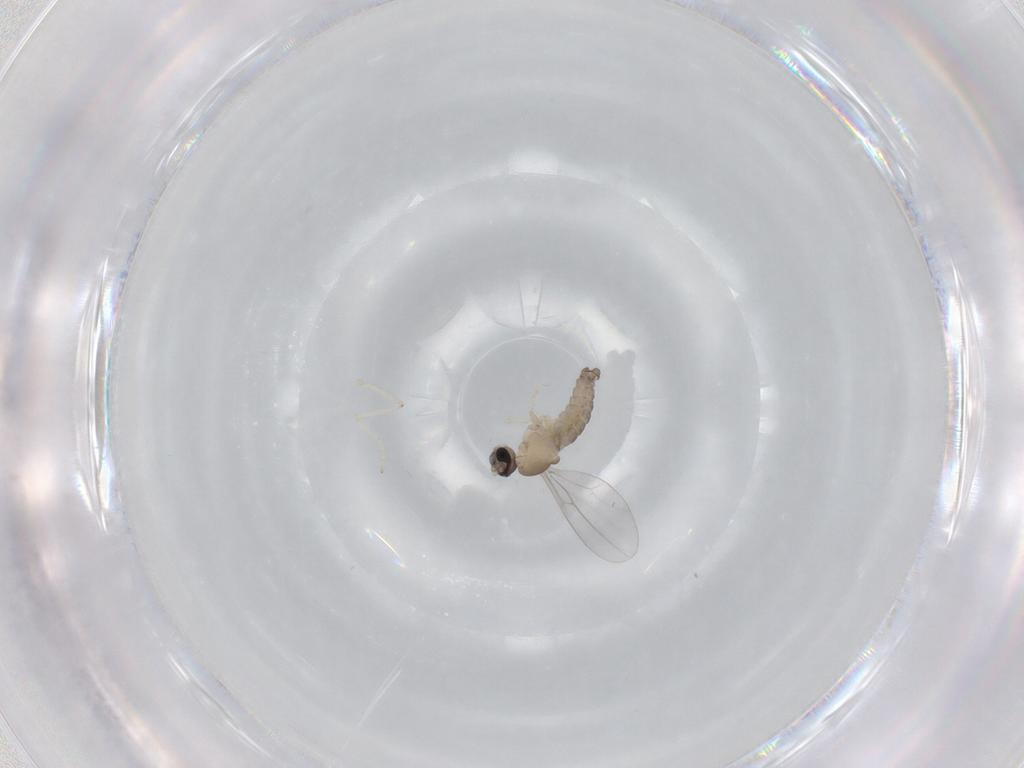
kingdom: Animalia
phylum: Arthropoda
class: Insecta
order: Diptera
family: Cecidomyiidae
